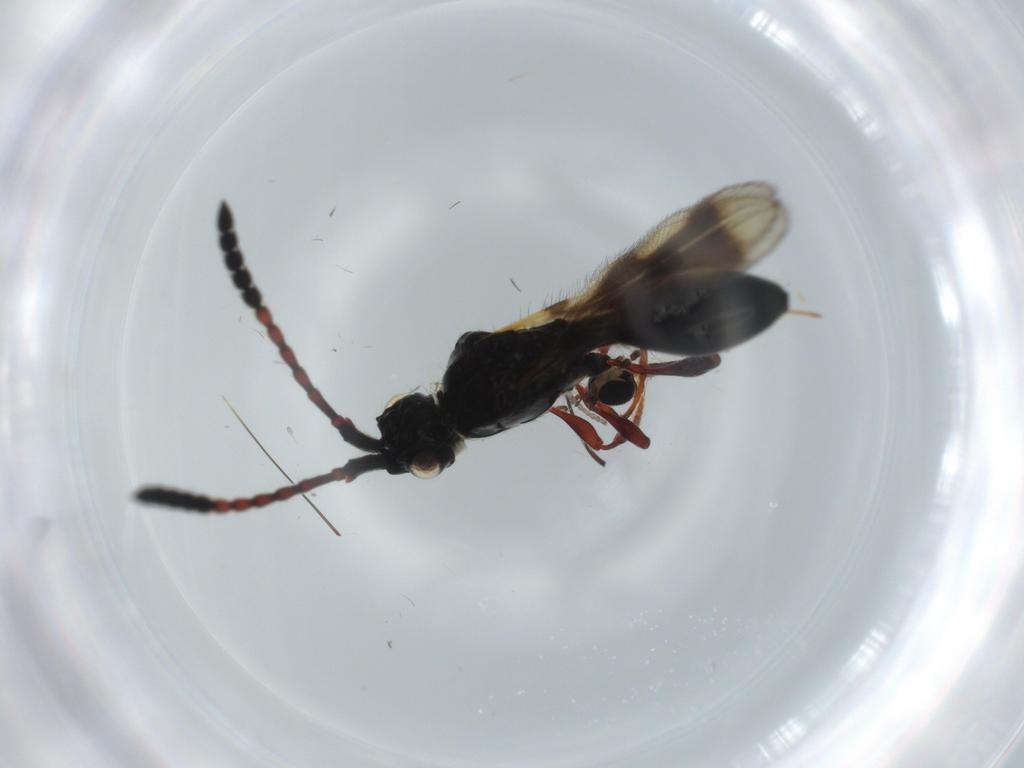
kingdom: Animalia
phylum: Arthropoda
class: Insecta
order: Hymenoptera
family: Diapriidae
